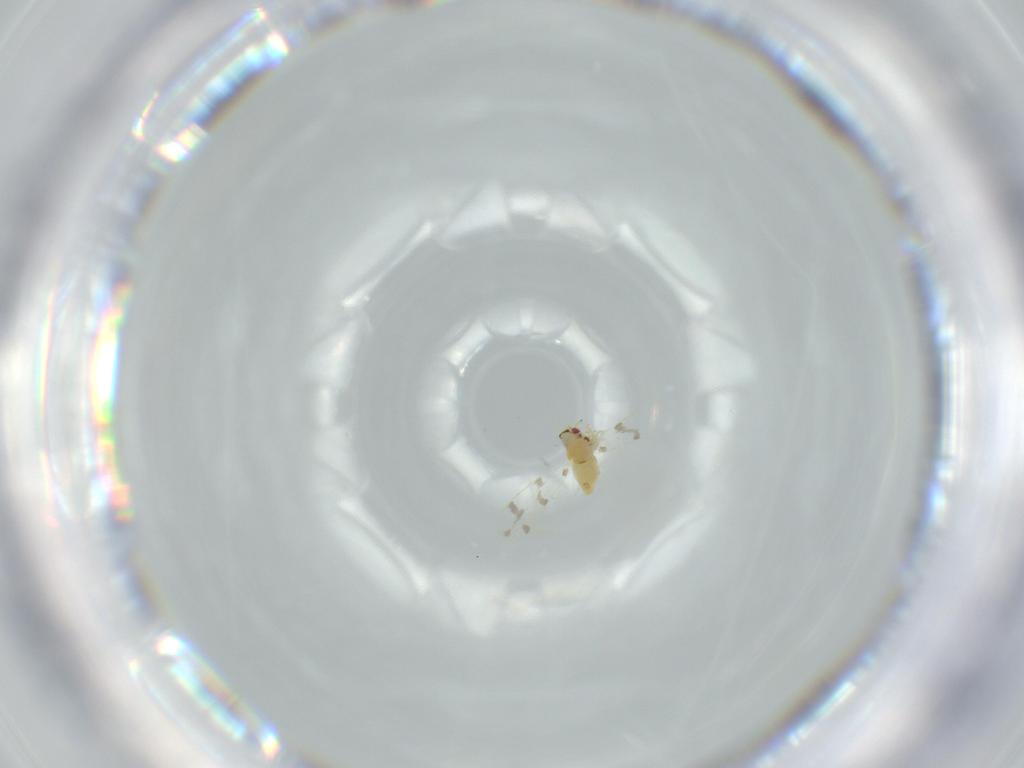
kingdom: Animalia
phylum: Arthropoda
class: Insecta
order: Hemiptera
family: Aleyrodidae
